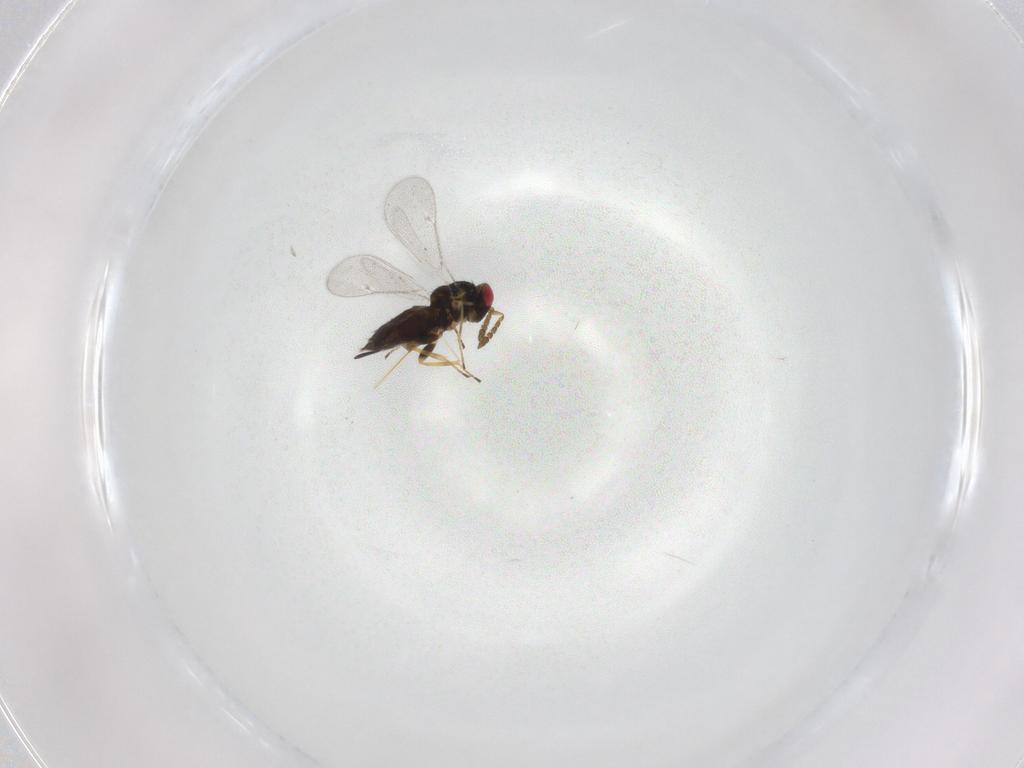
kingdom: Animalia
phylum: Arthropoda
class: Insecta
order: Hymenoptera
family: Eulophidae
